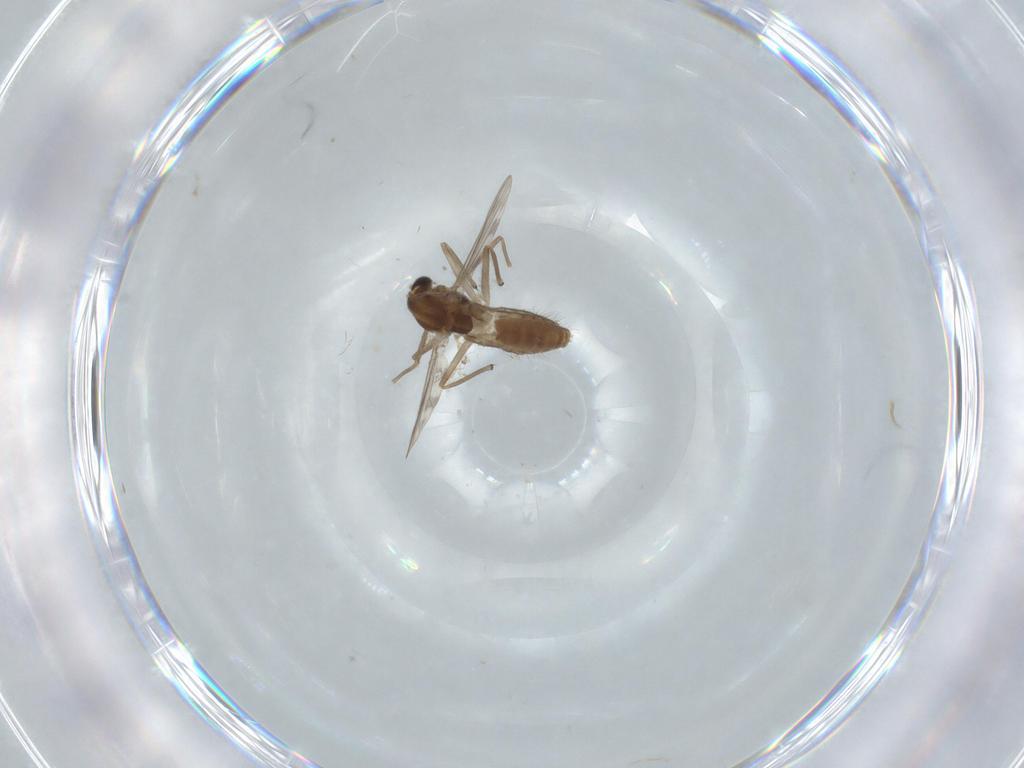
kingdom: Animalia
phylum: Arthropoda
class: Insecta
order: Diptera
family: Chironomidae
